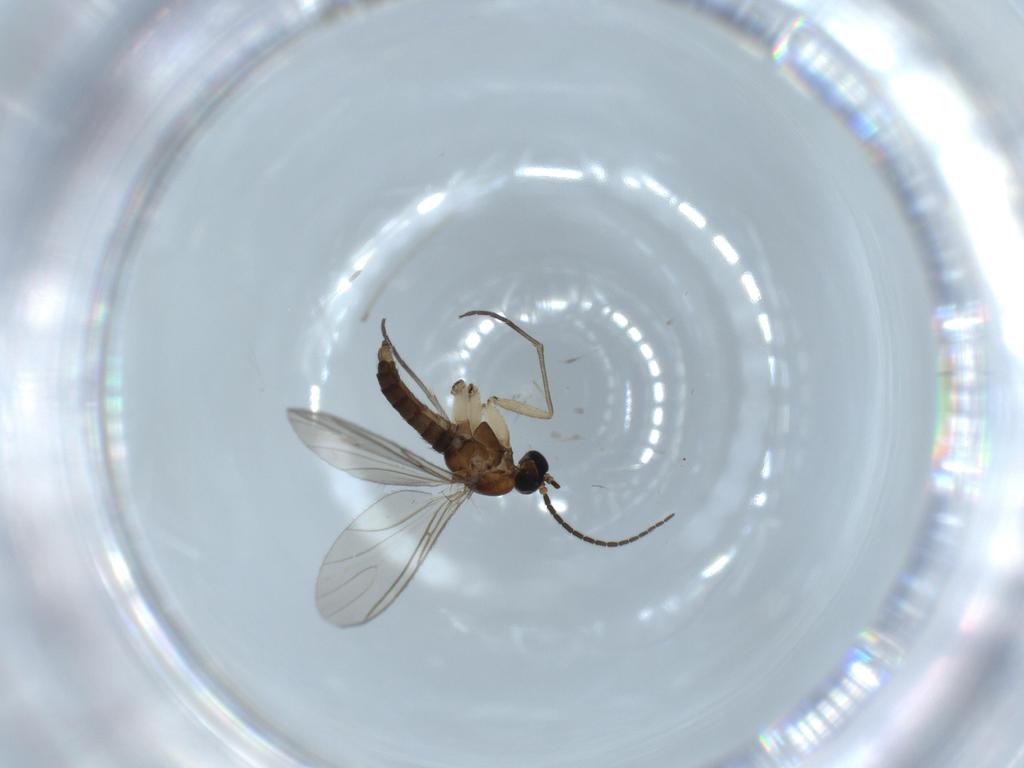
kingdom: Animalia
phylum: Arthropoda
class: Insecta
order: Diptera
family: Sciaridae
